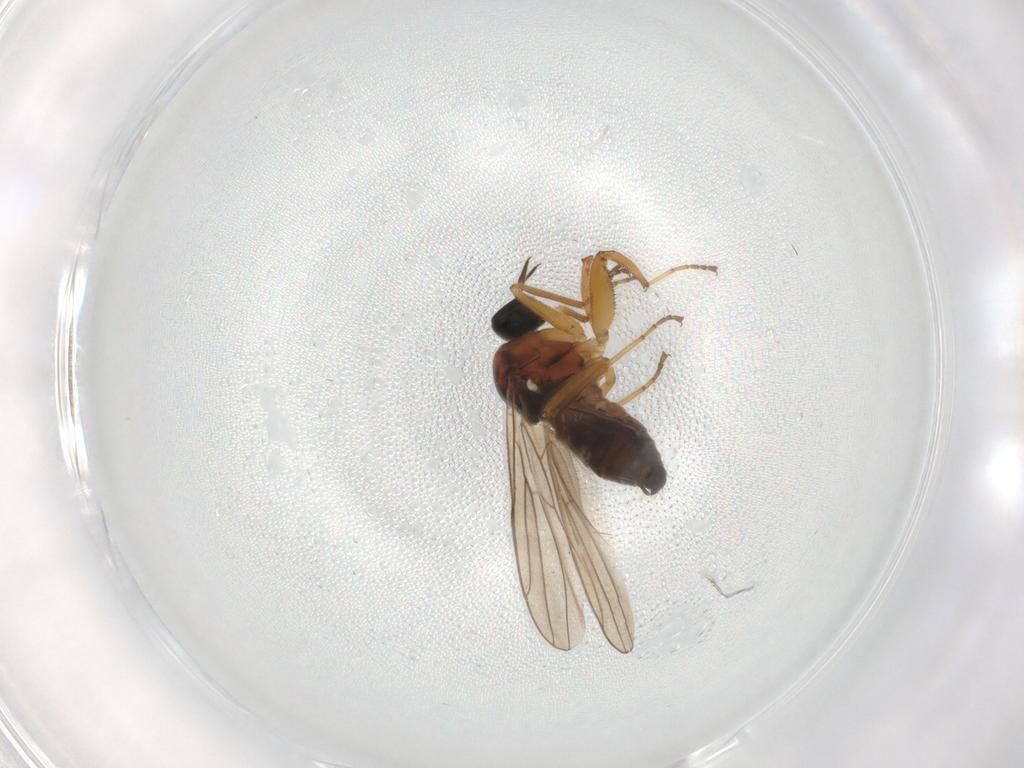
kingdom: Animalia
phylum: Arthropoda
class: Insecta
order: Diptera
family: Hybotidae
